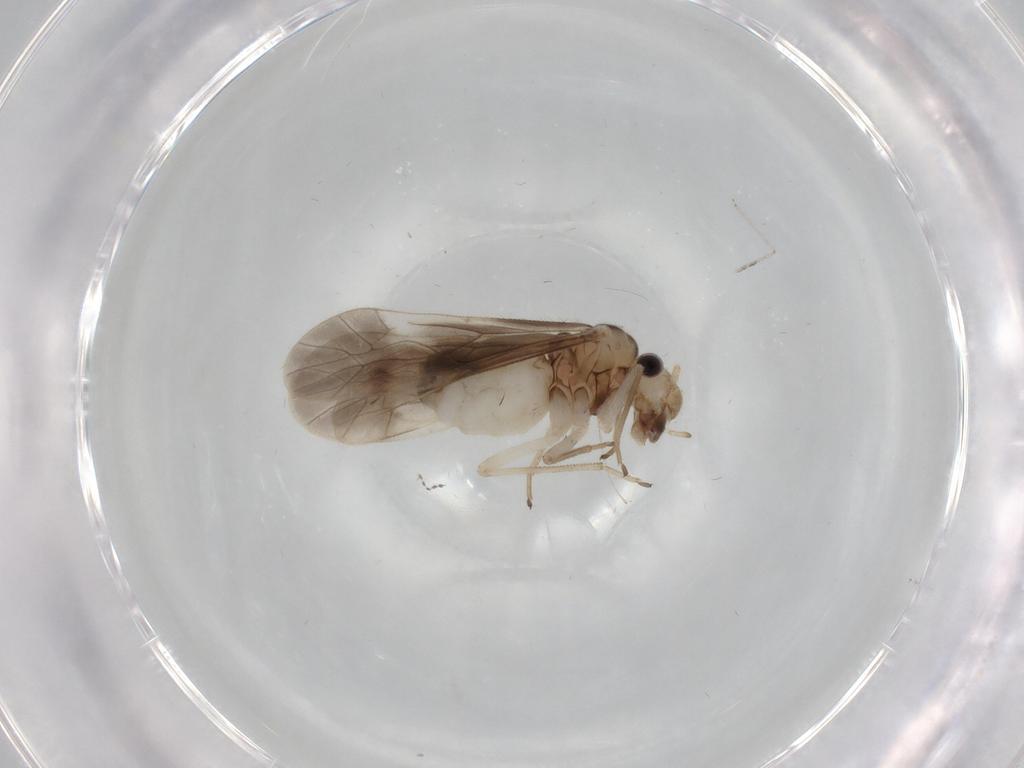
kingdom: Animalia
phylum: Arthropoda
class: Insecta
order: Psocodea
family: Caeciliusidae
